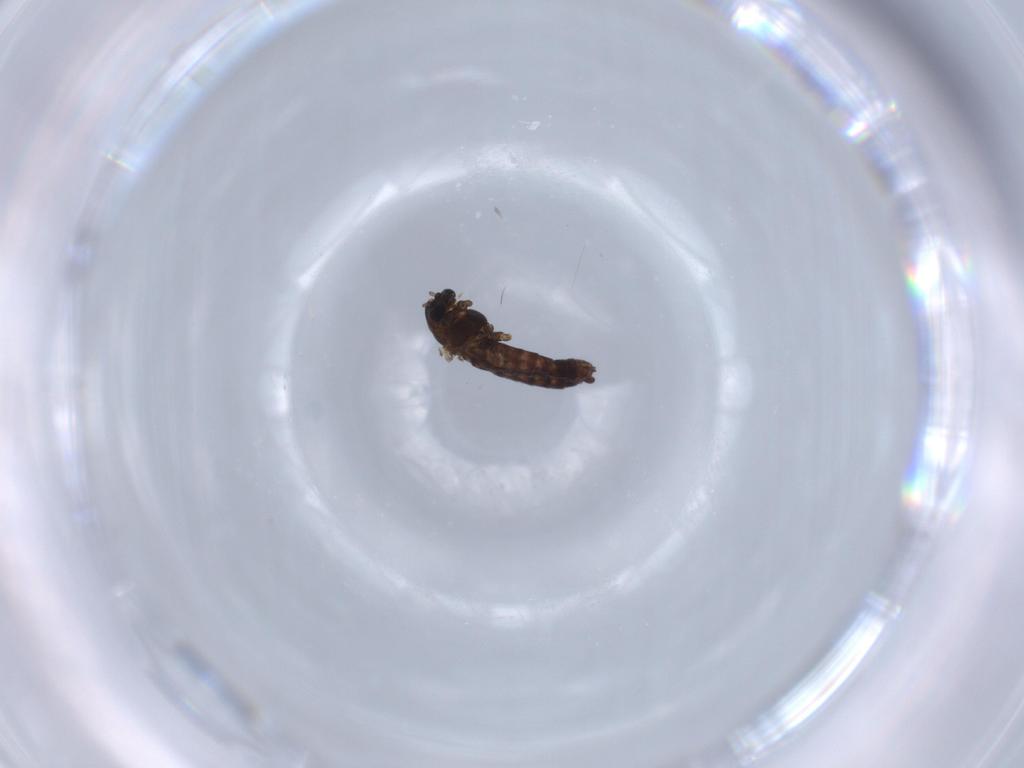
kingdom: Animalia
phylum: Arthropoda
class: Insecta
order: Diptera
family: Chironomidae
